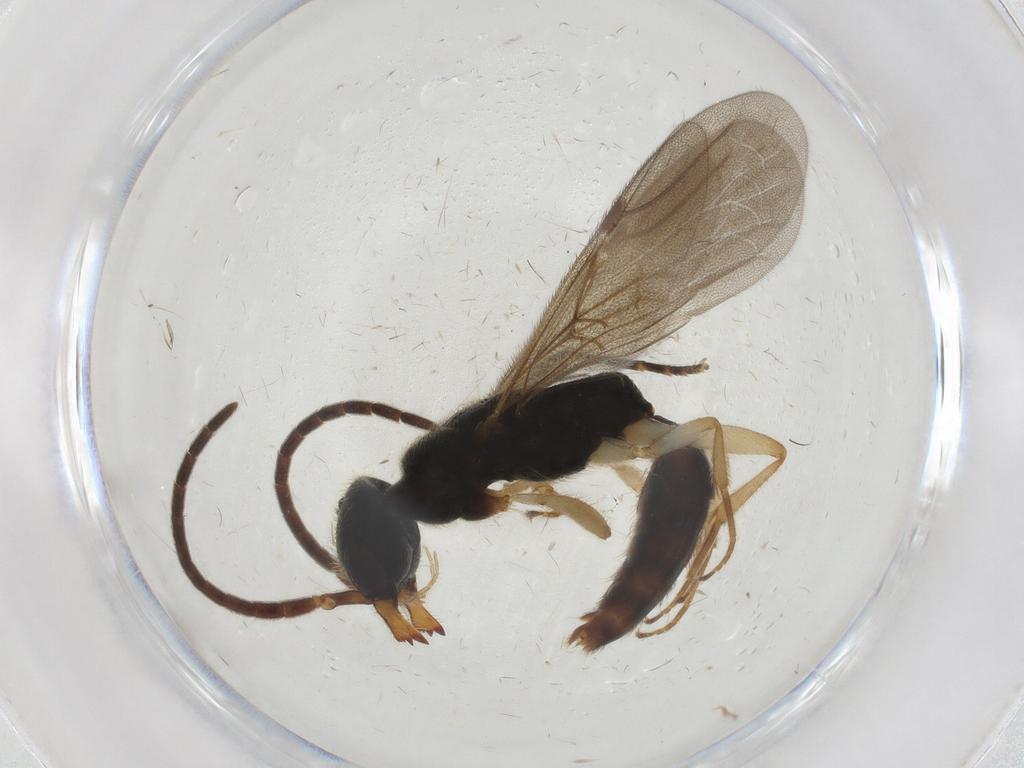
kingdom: Animalia
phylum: Arthropoda
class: Insecta
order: Hymenoptera
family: Bethylidae
